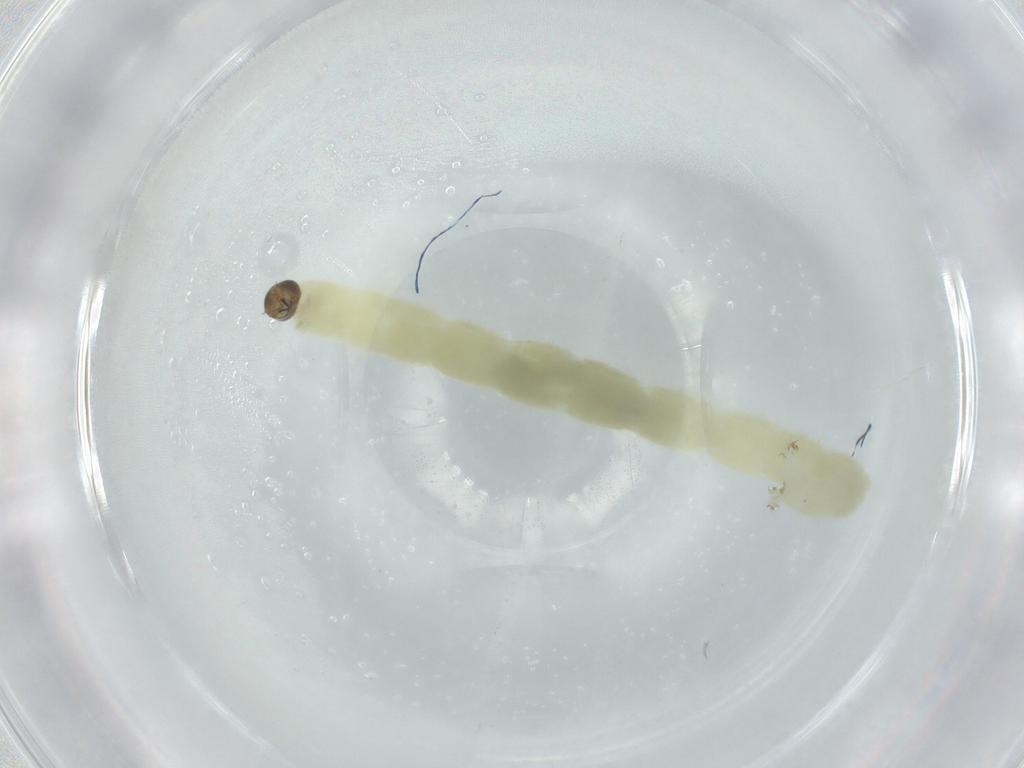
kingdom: Animalia
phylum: Arthropoda
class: Insecta
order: Diptera
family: Chironomidae
